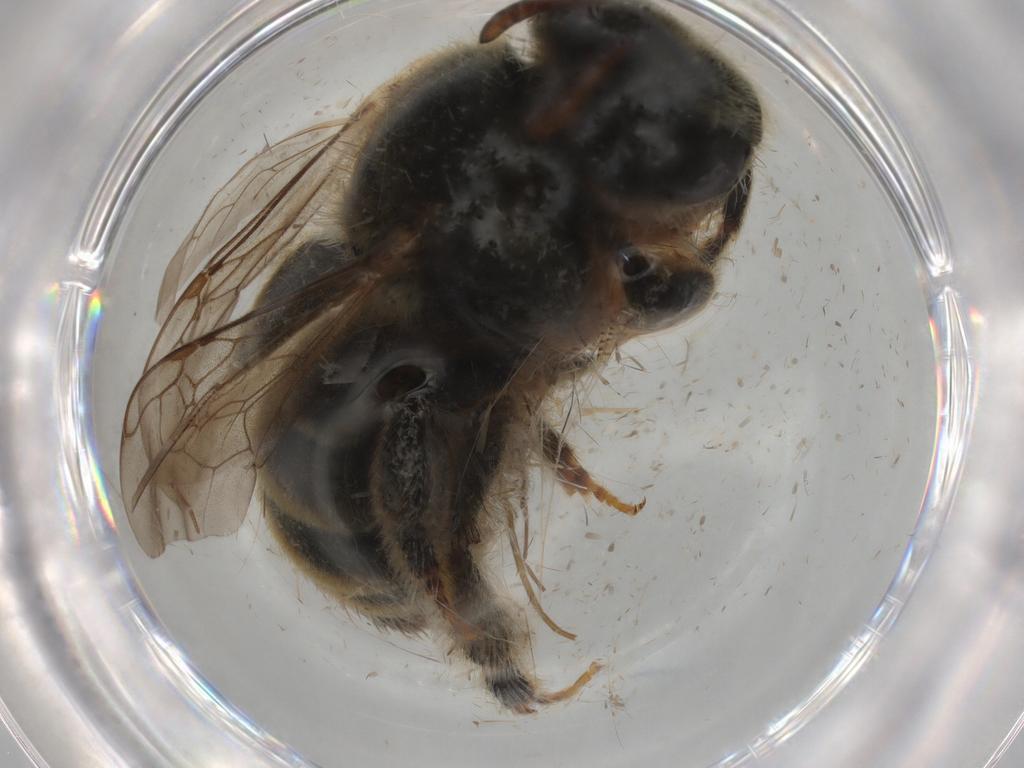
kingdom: Animalia
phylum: Arthropoda
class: Insecta
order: Hymenoptera
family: Halictidae
